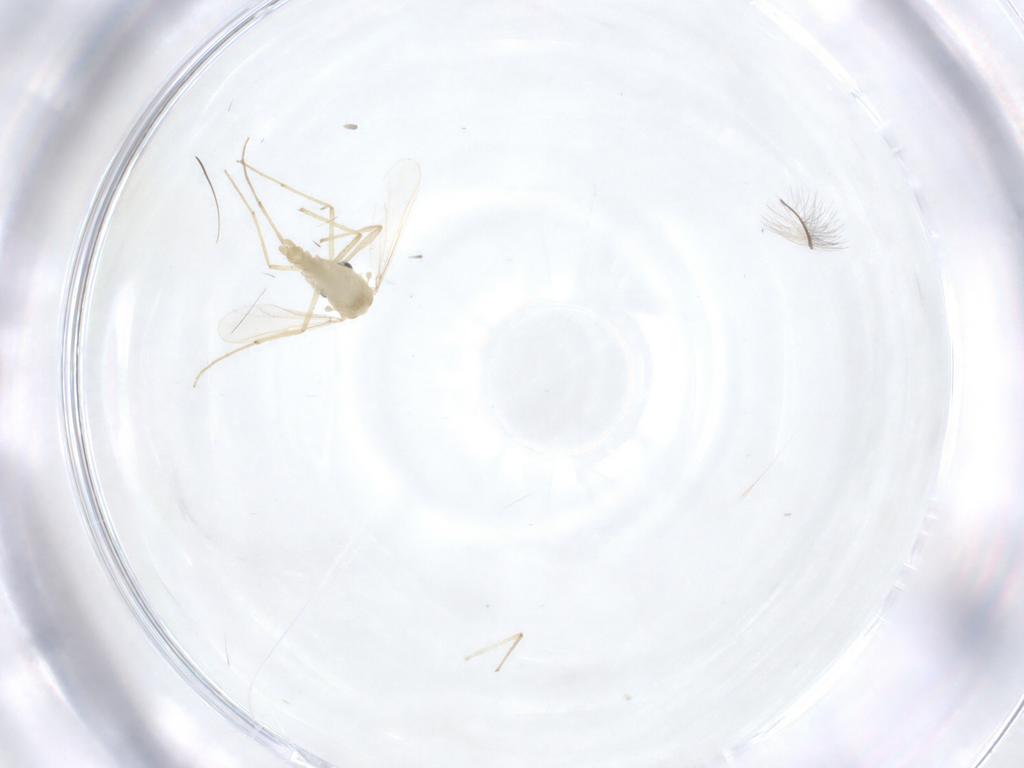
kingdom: Animalia
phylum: Arthropoda
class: Insecta
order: Diptera
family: Chironomidae
